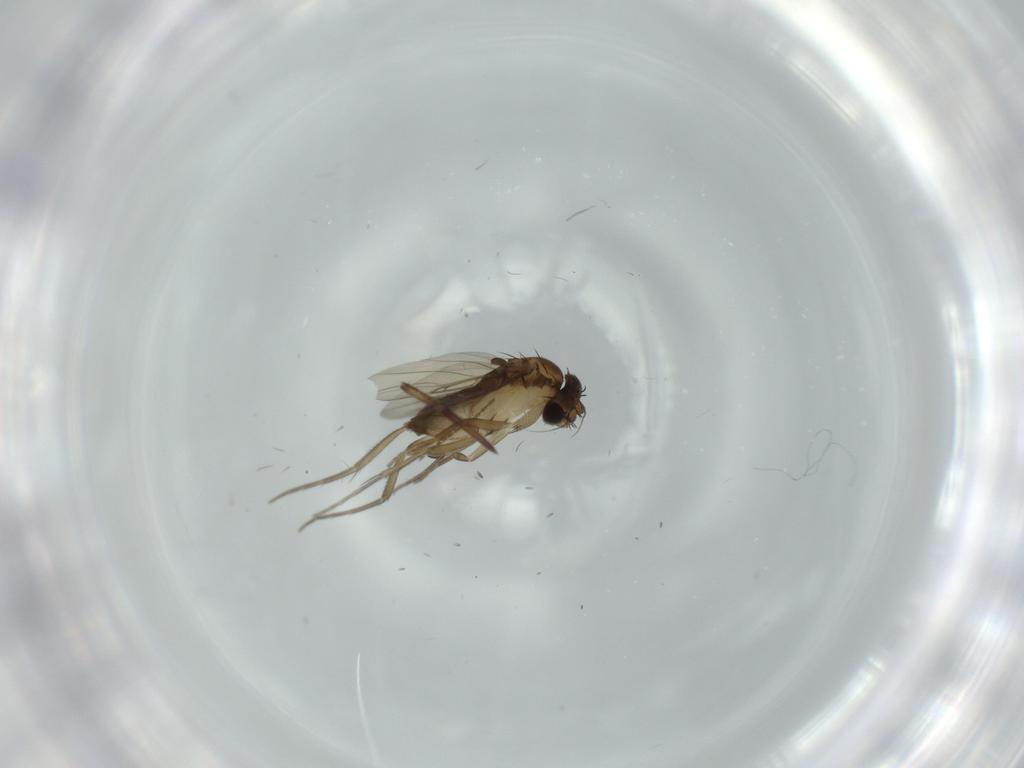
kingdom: Animalia
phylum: Arthropoda
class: Insecta
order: Diptera
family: Cecidomyiidae
